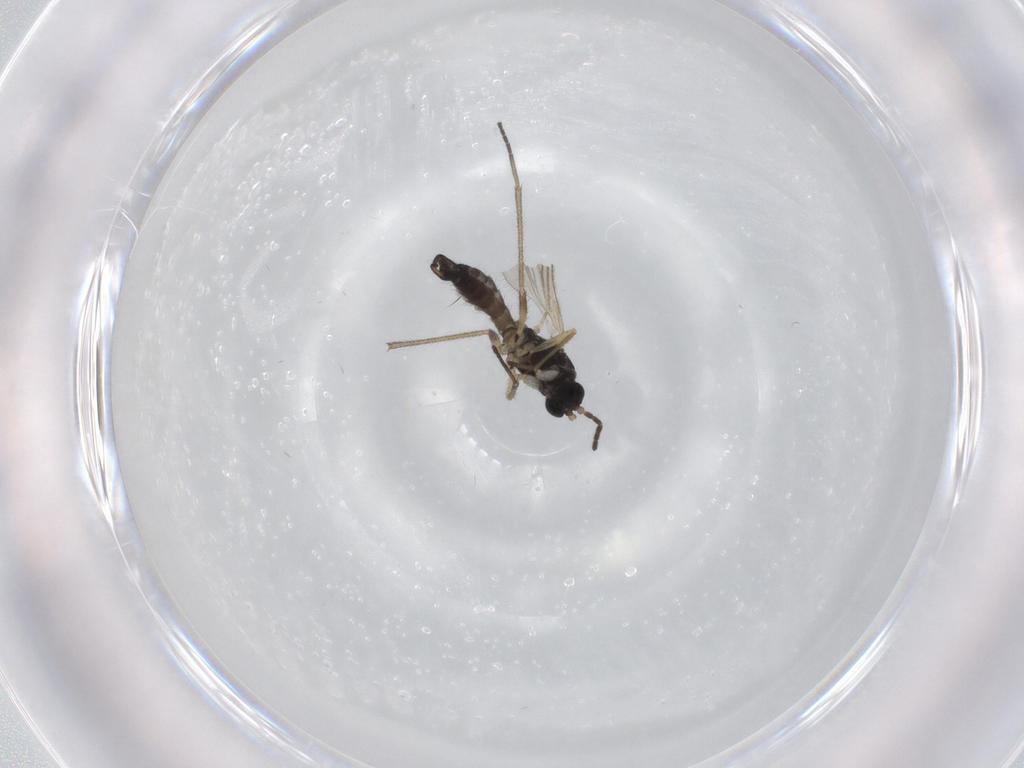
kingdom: Animalia
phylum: Arthropoda
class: Insecta
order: Diptera
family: Sciaridae
